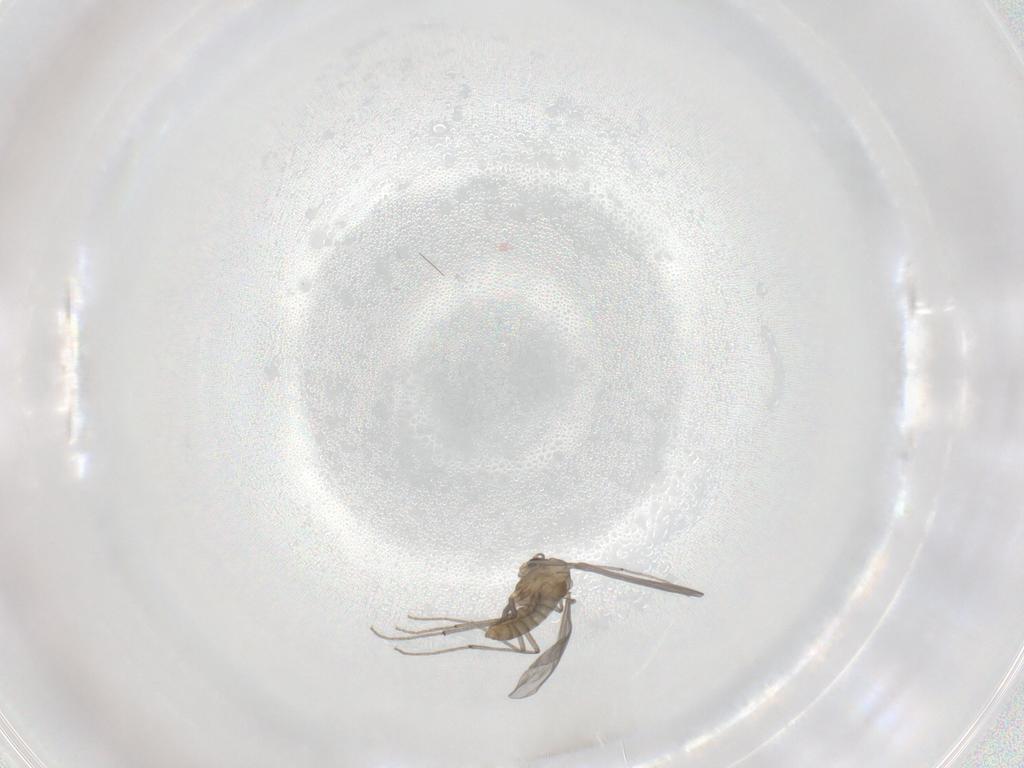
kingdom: Animalia
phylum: Arthropoda
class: Insecta
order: Diptera
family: Chironomidae
